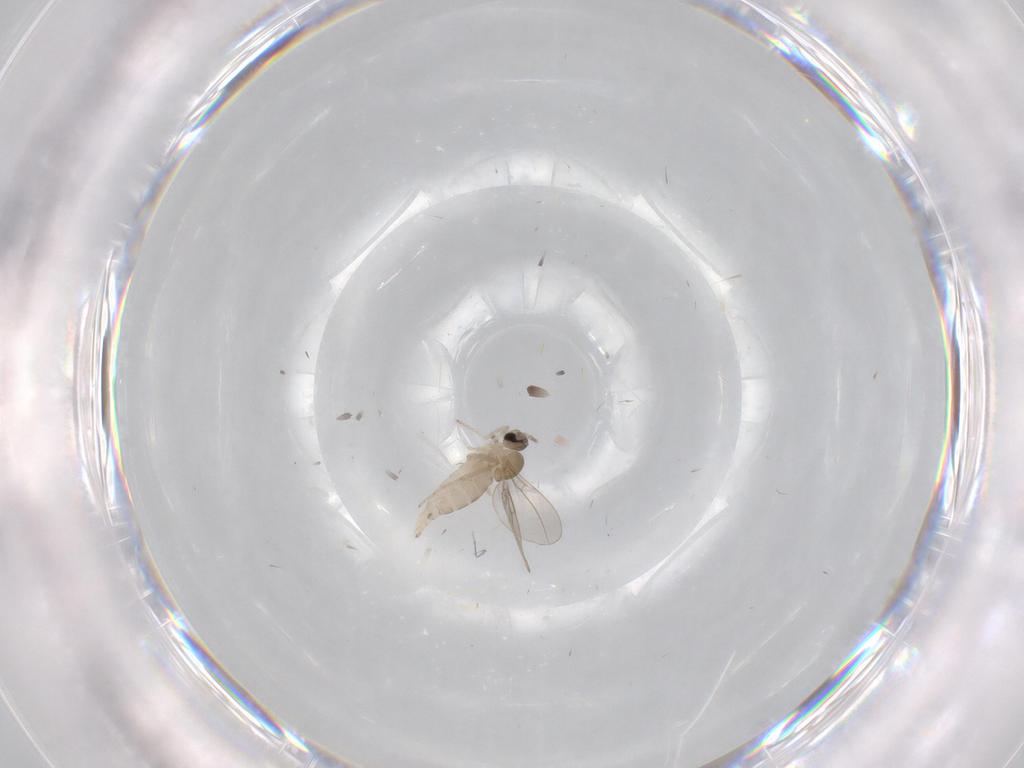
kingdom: Animalia
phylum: Arthropoda
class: Insecta
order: Diptera
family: Cecidomyiidae
